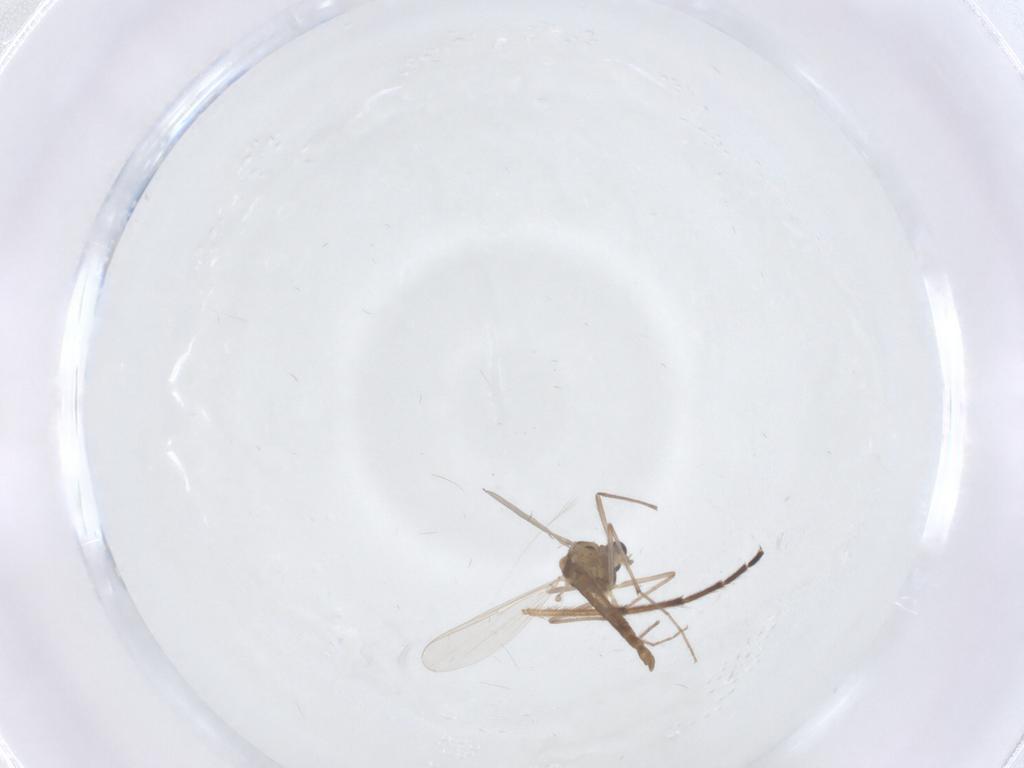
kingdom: Animalia
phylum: Arthropoda
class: Insecta
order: Diptera
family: Chironomidae
